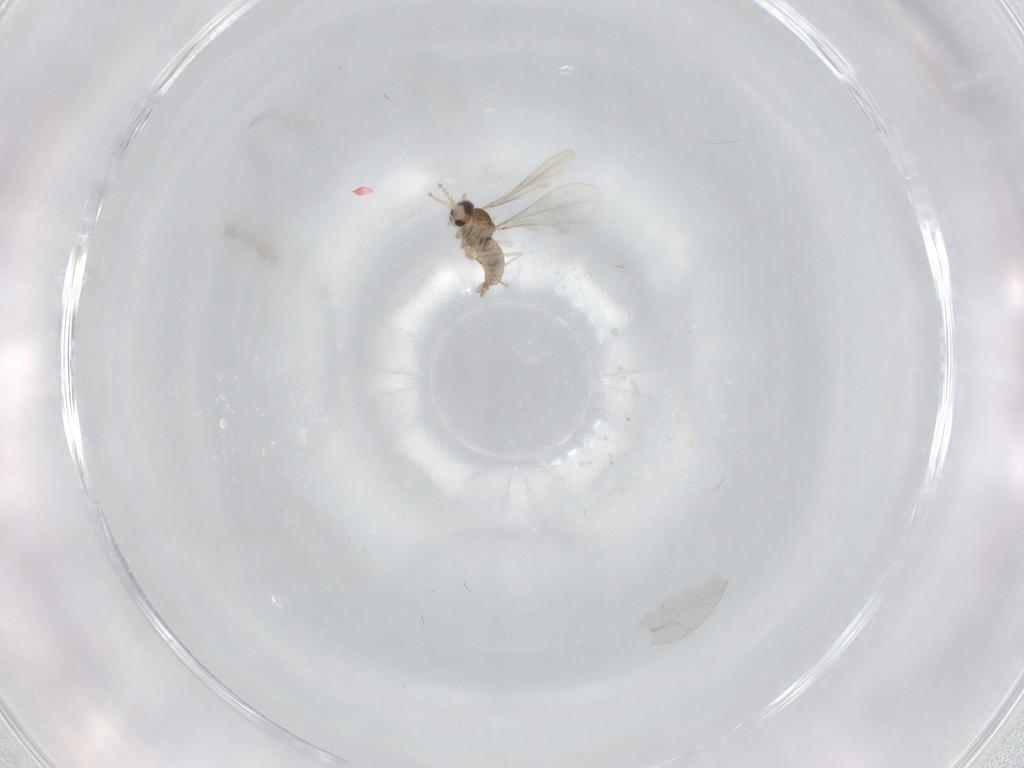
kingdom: Animalia
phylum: Arthropoda
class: Insecta
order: Diptera
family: Cecidomyiidae
